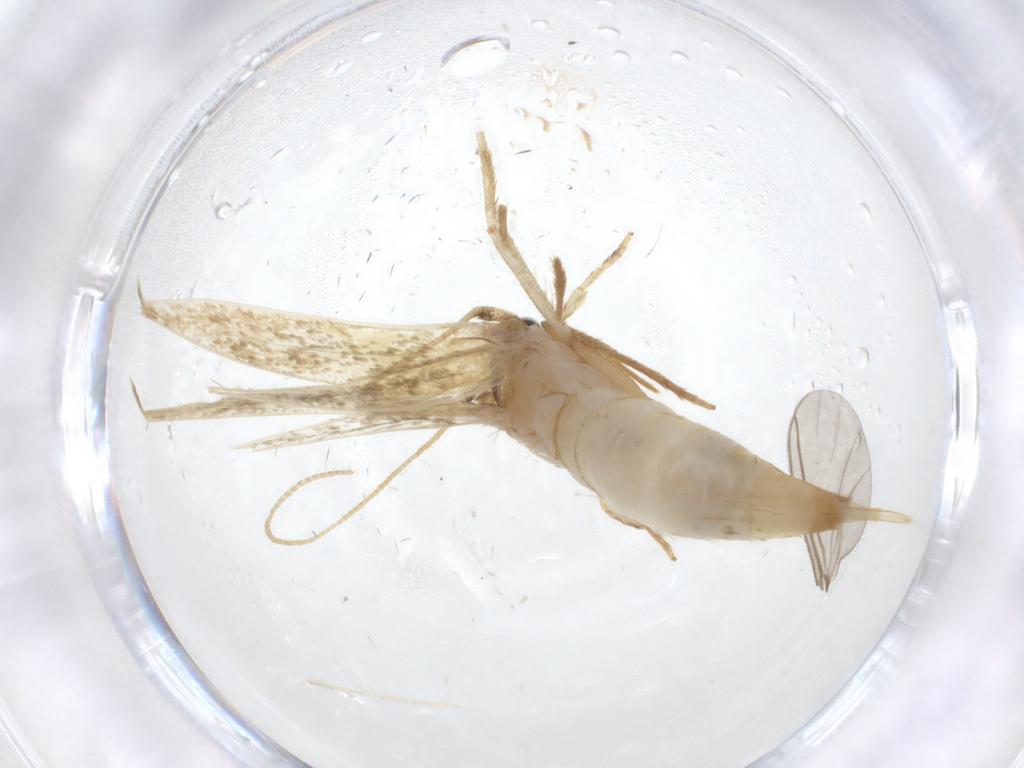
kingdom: Animalia
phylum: Arthropoda
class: Insecta
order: Lepidoptera
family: Tineidae
